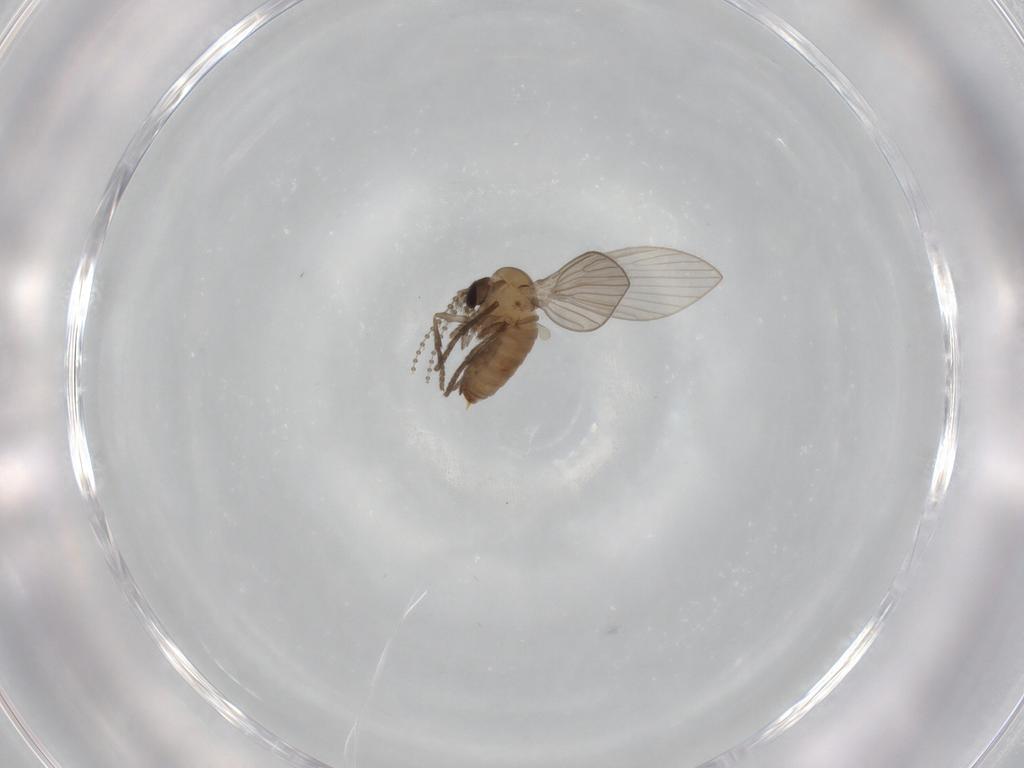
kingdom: Animalia
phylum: Arthropoda
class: Insecta
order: Diptera
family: Psychodidae
